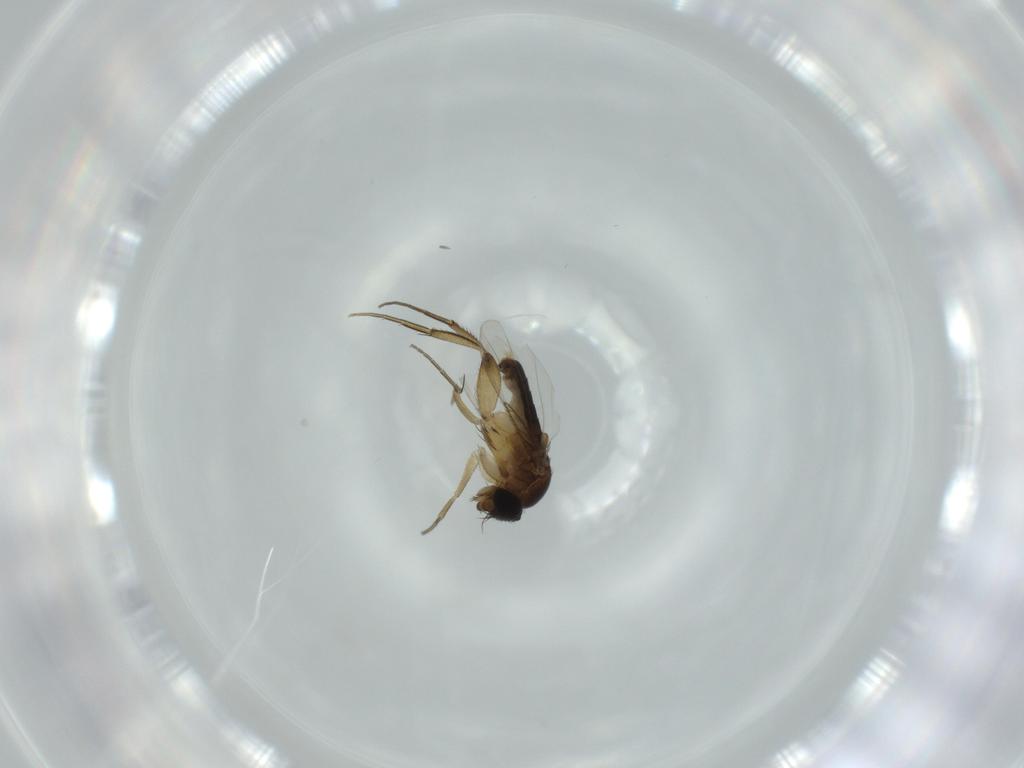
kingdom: Animalia
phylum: Arthropoda
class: Insecta
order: Diptera
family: Phoridae
